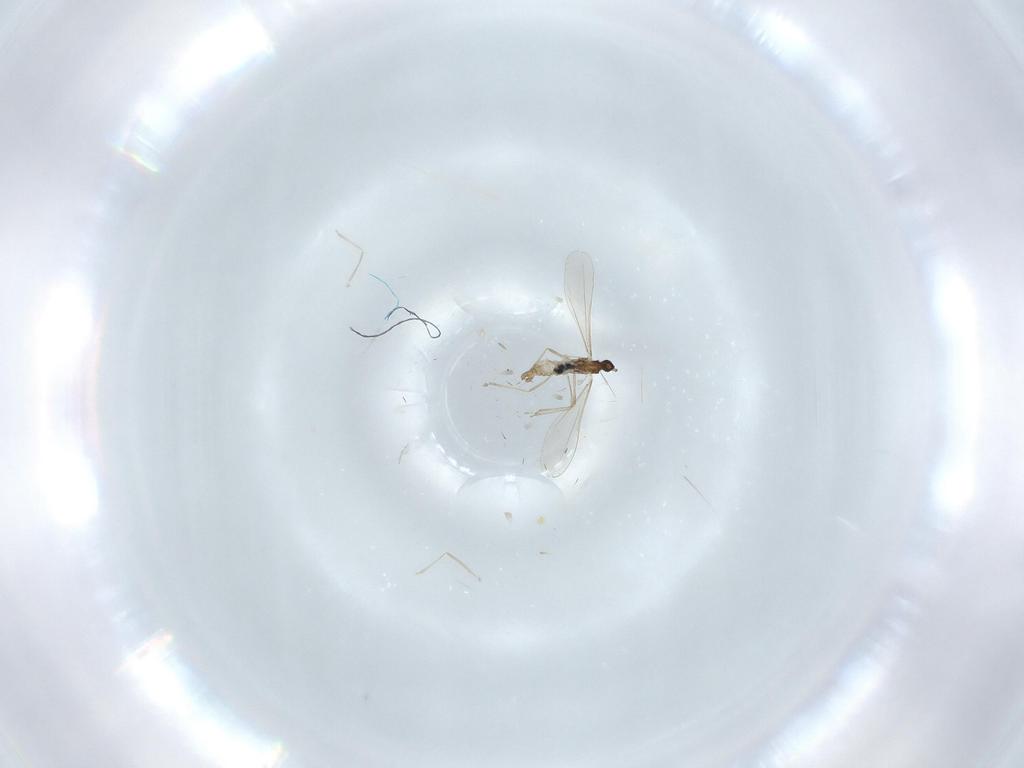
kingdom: Animalia
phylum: Arthropoda
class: Insecta
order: Diptera
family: Cecidomyiidae
